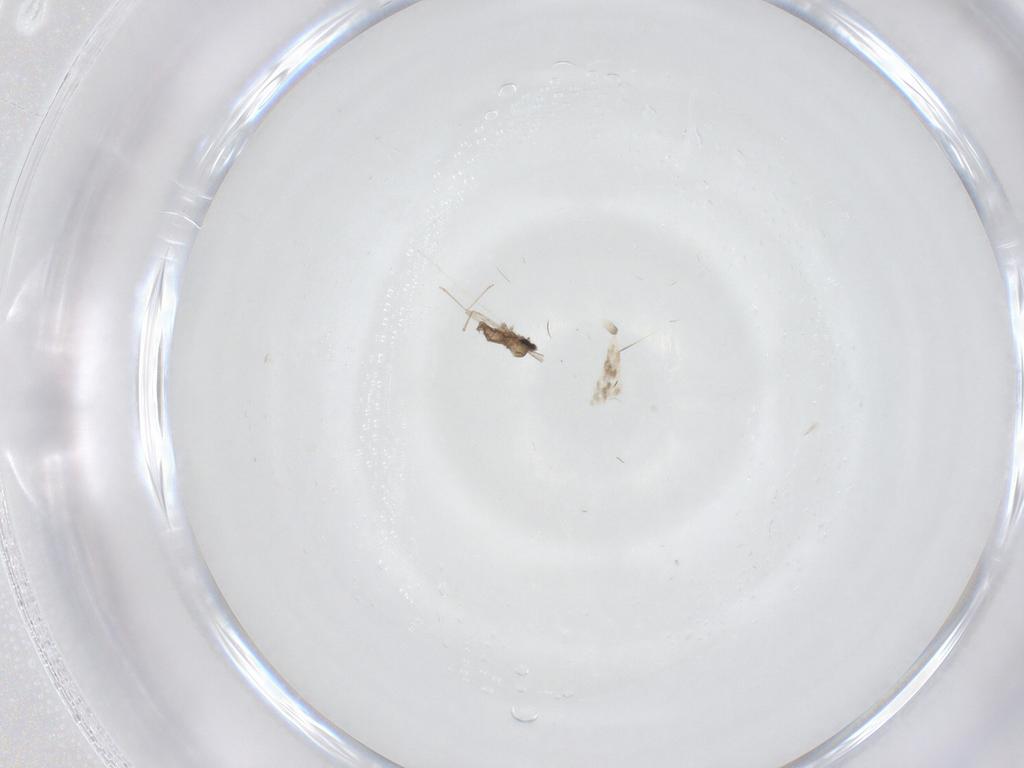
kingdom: Animalia
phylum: Arthropoda
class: Insecta
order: Diptera
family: Cecidomyiidae
